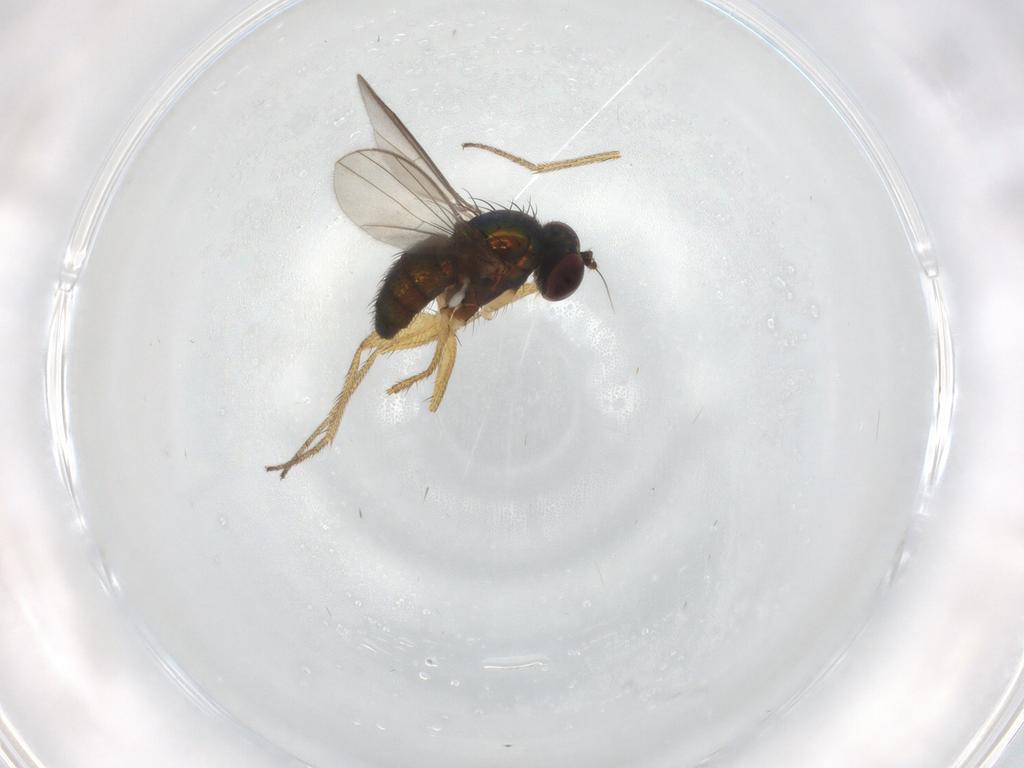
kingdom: Animalia
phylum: Arthropoda
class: Insecta
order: Diptera
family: Dolichopodidae
